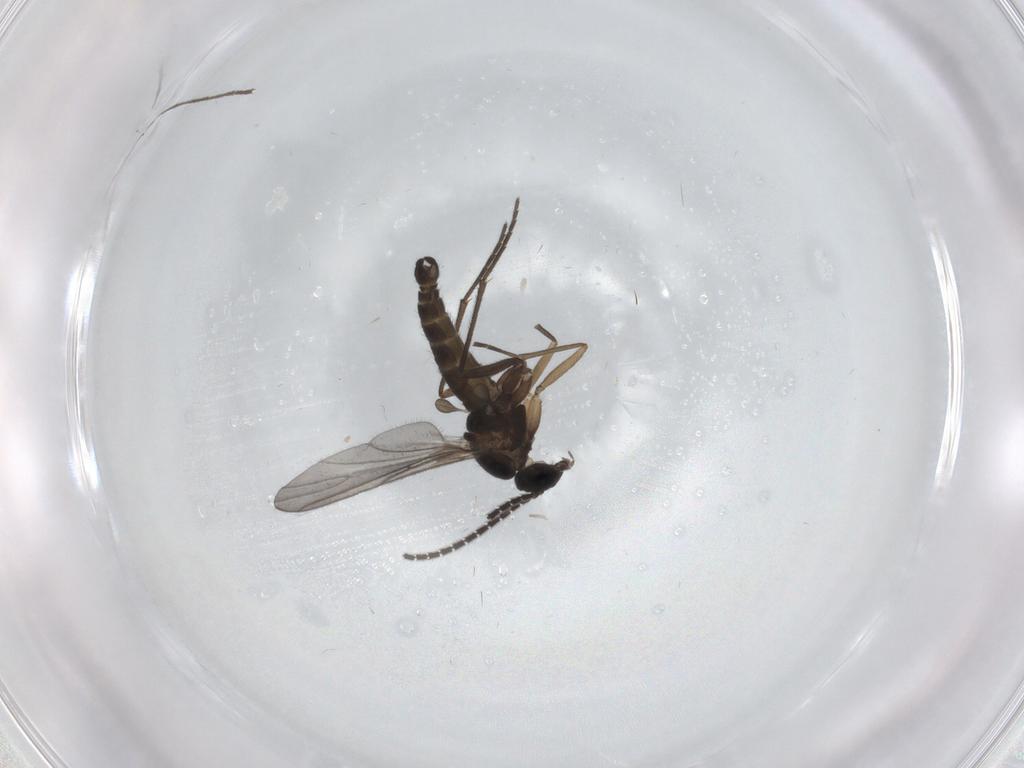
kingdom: Animalia
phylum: Arthropoda
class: Insecta
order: Diptera
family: Sciaridae
